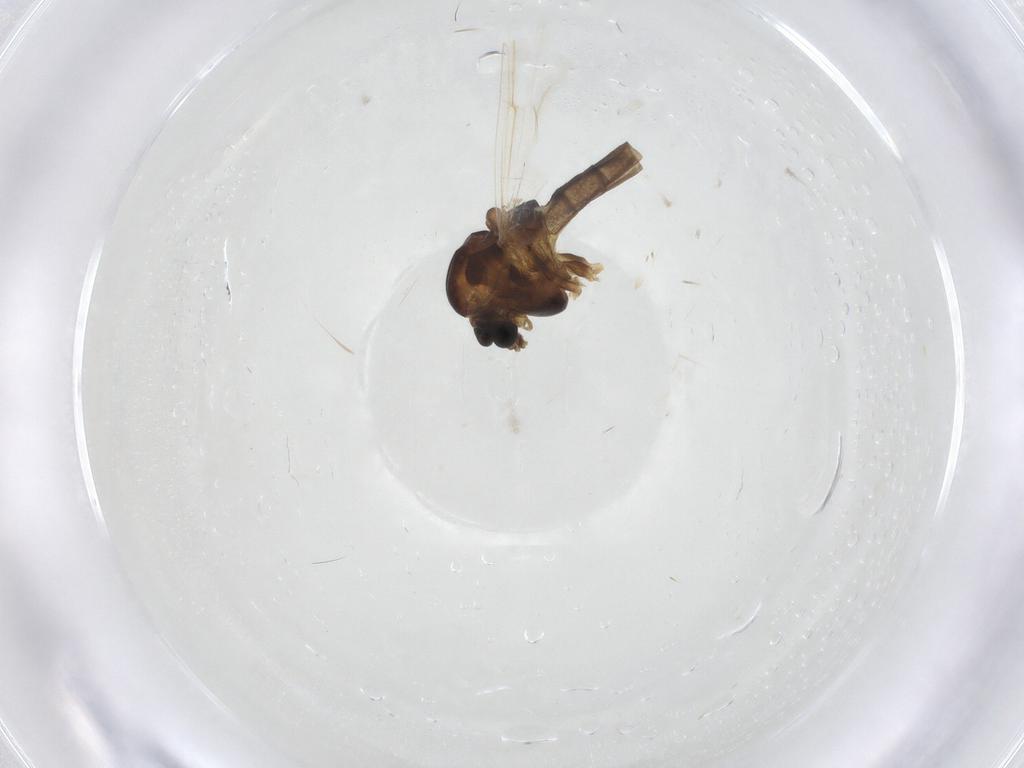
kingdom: Animalia
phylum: Arthropoda
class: Insecta
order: Diptera
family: Chironomidae
